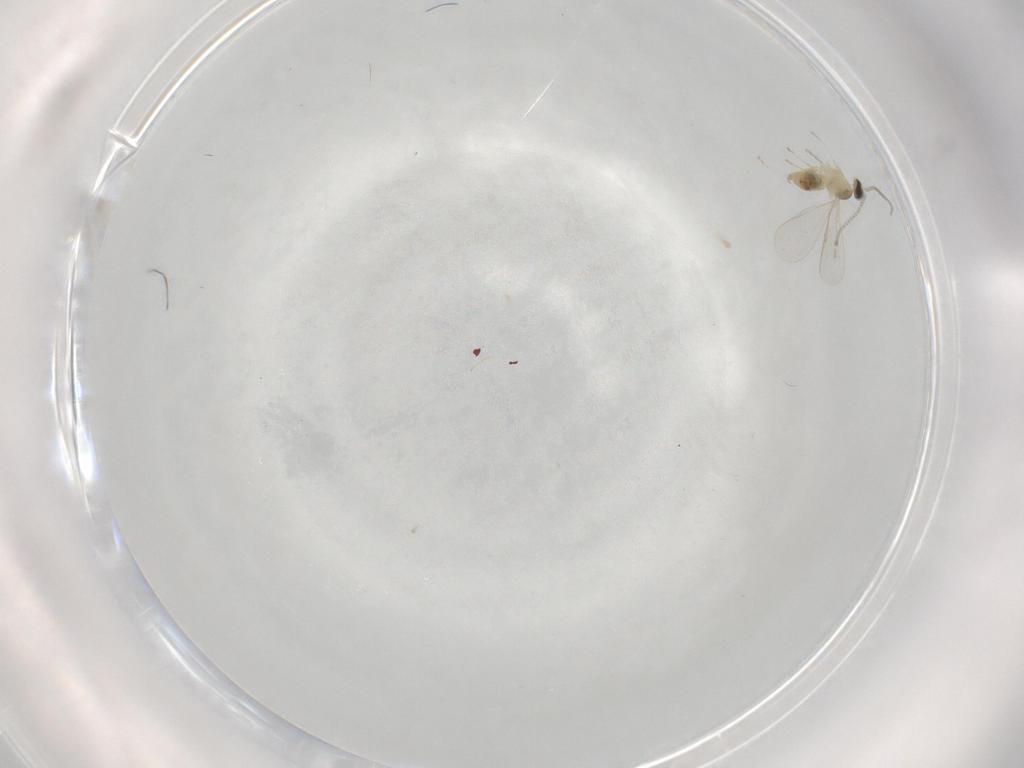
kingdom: Animalia
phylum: Arthropoda
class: Insecta
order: Diptera
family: Cecidomyiidae
